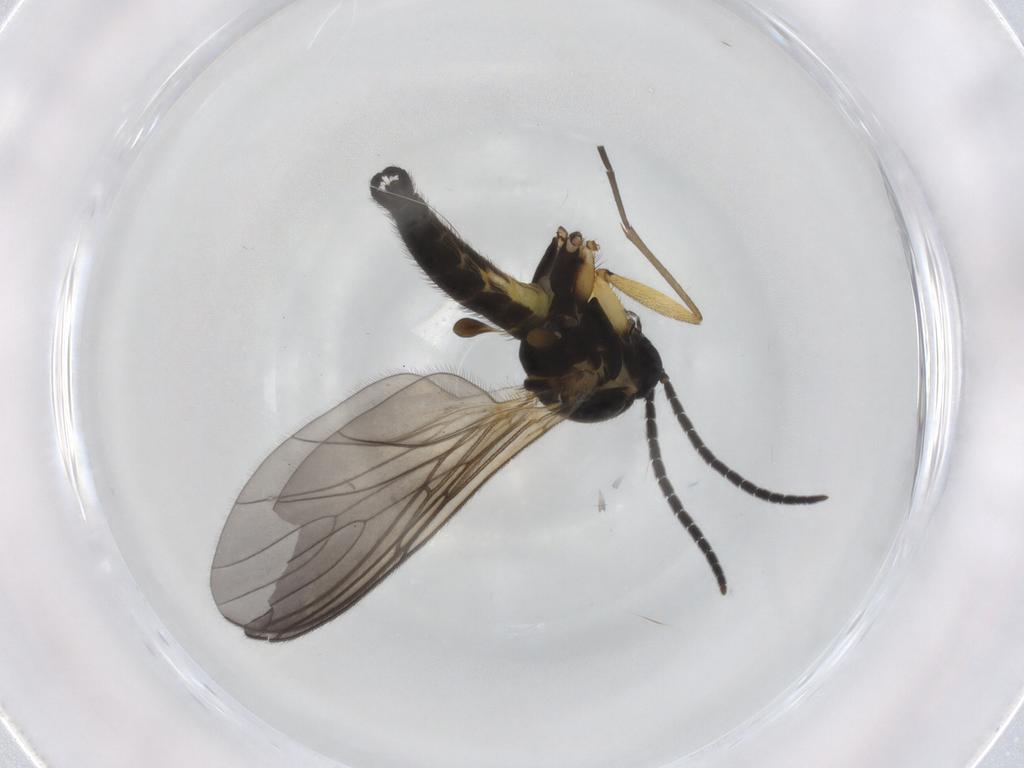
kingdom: Animalia
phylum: Arthropoda
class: Insecta
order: Diptera
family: Sciaridae
